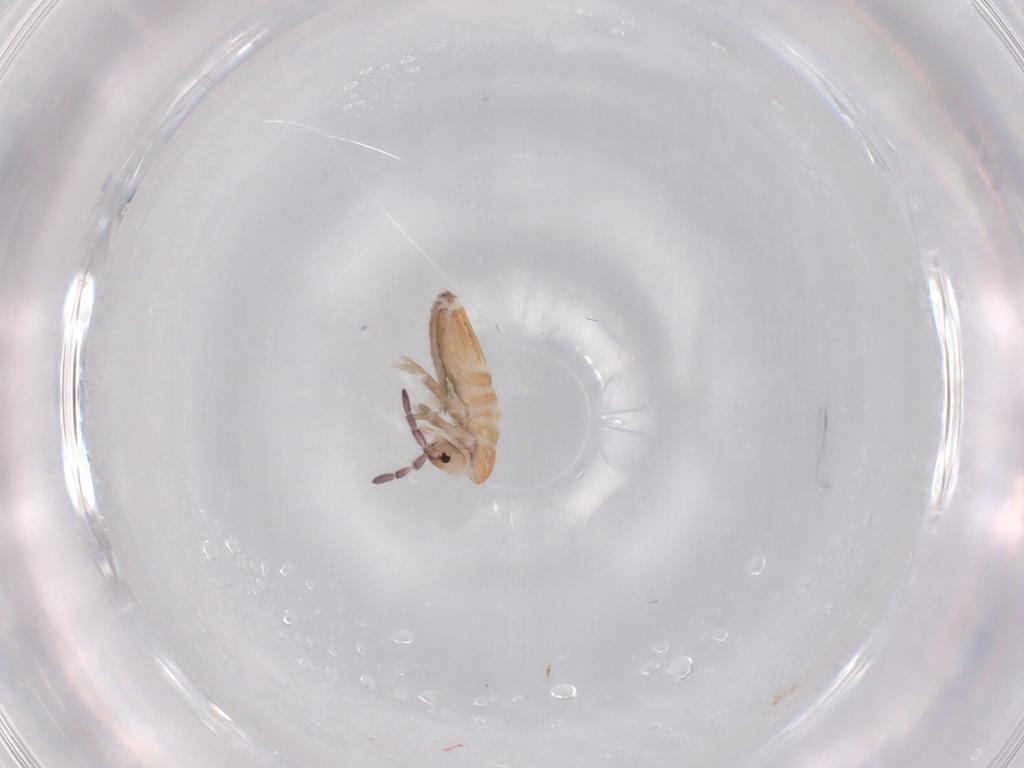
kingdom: Animalia
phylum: Arthropoda
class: Collembola
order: Entomobryomorpha
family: Entomobryidae
